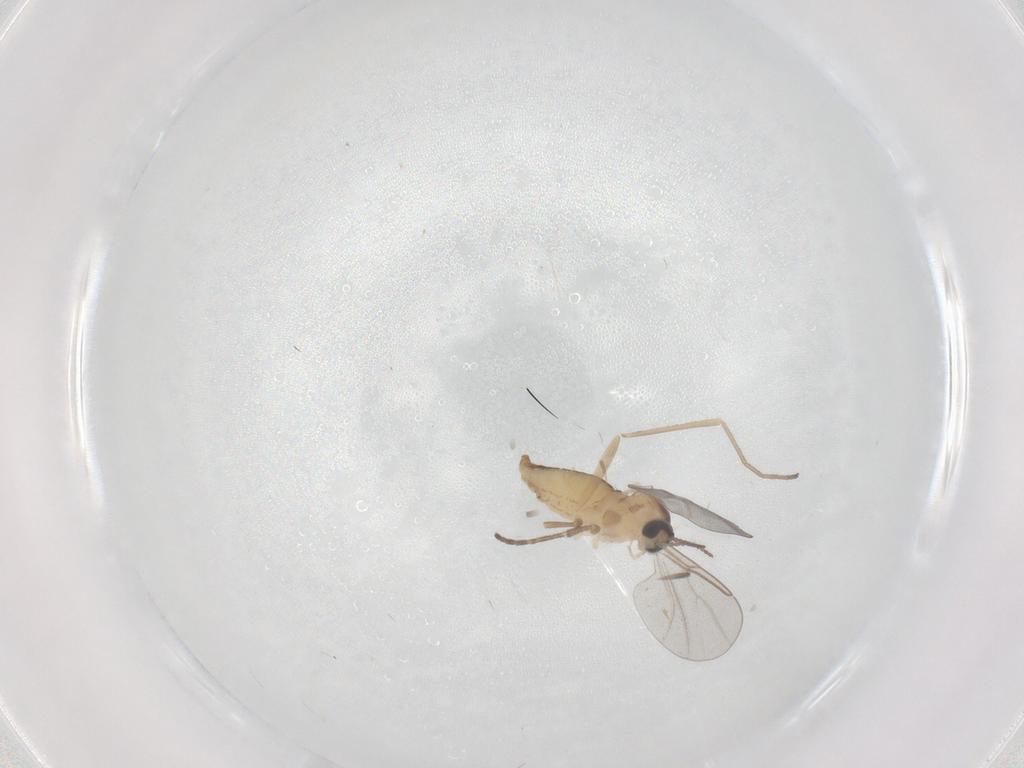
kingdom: Animalia
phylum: Arthropoda
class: Insecta
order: Diptera
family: Cecidomyiidae
